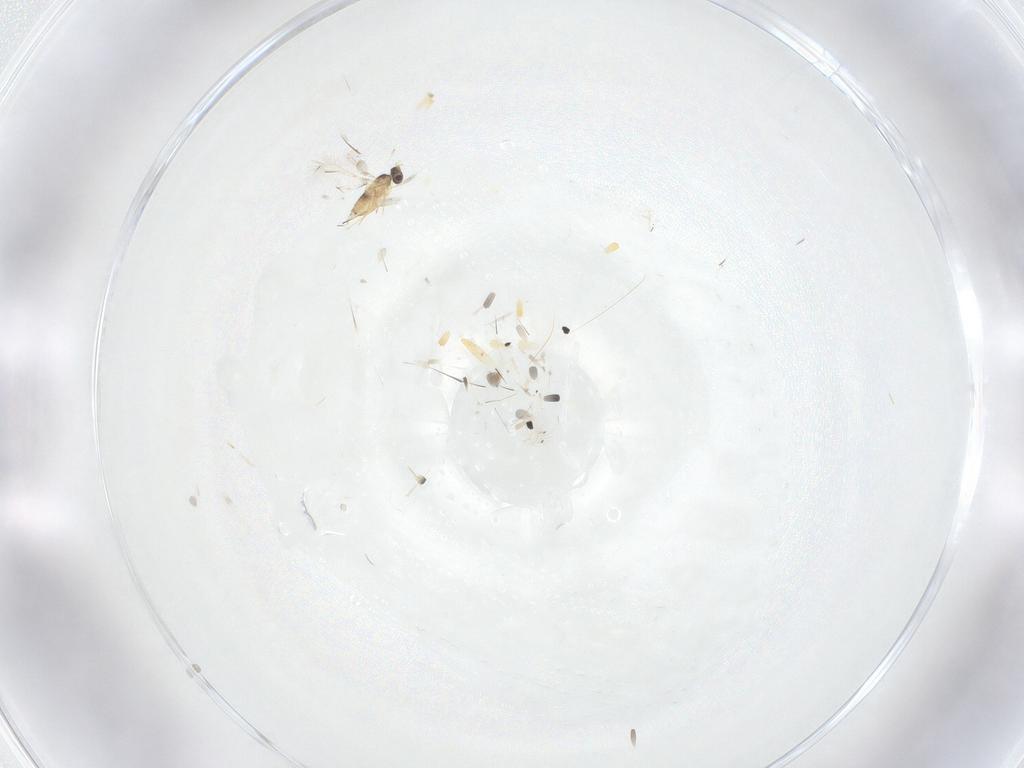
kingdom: Animalia
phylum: Arthropoda
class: Insecta
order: Hymenoptera
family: Mymaridae
